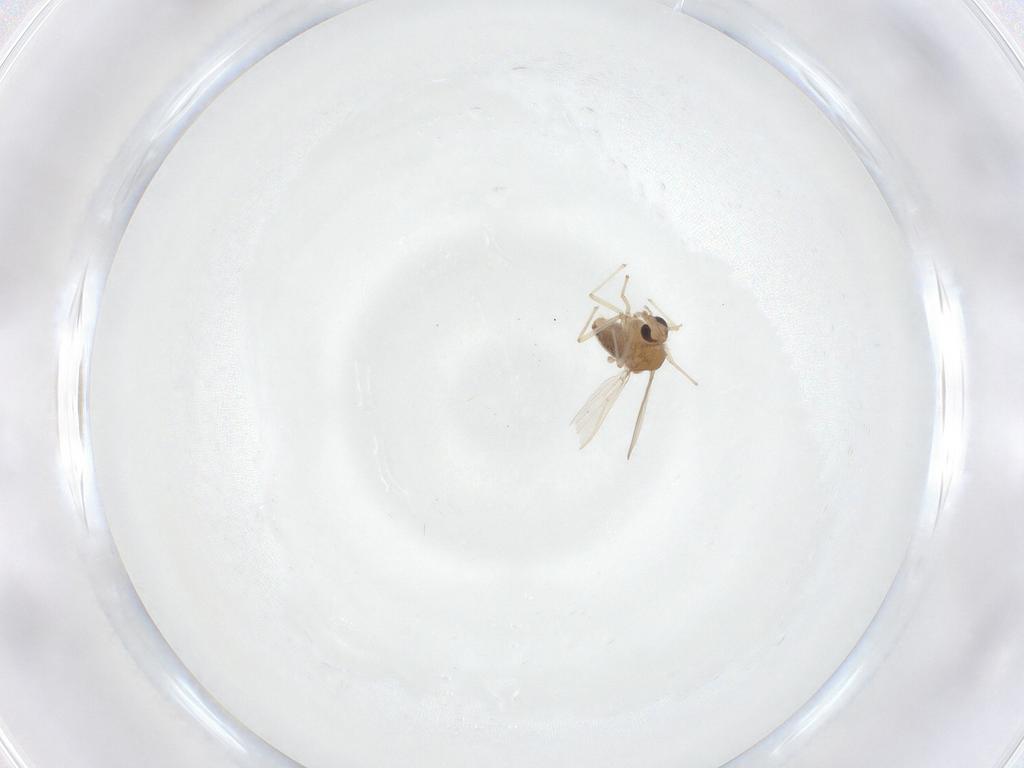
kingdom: Animalia
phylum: Arthropoda
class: Insecta
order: Diptera
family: Chironomidae
